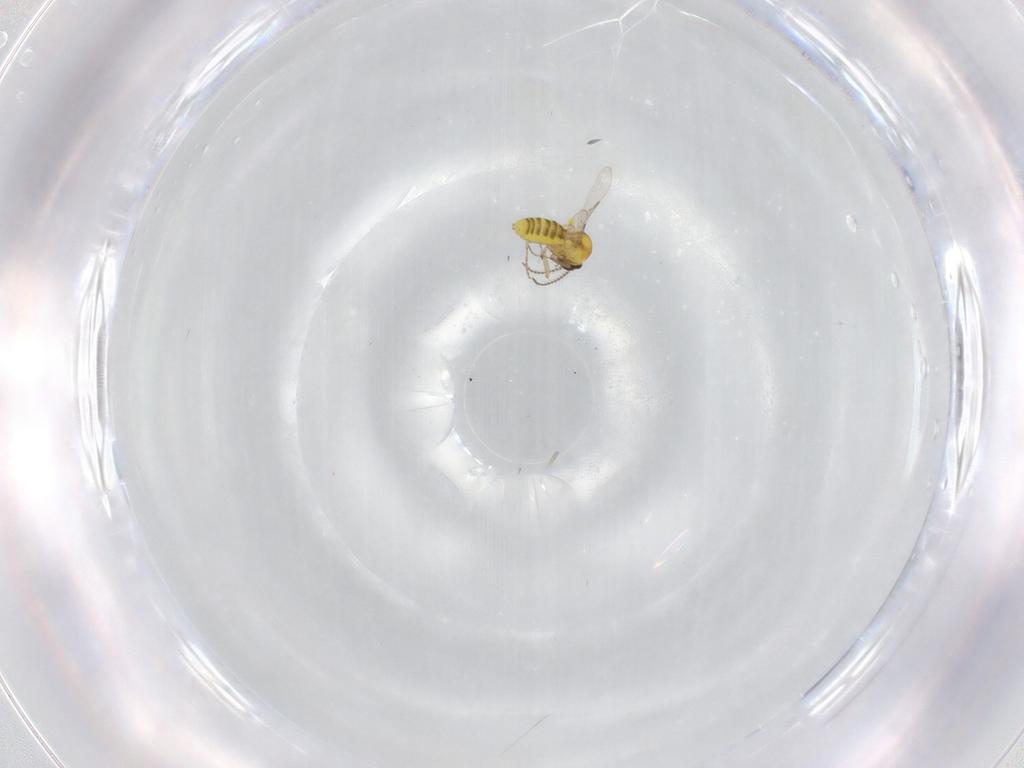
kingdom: Animalia
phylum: Arthropoda
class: Insecta
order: Diptera
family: Ceratopogonidae
